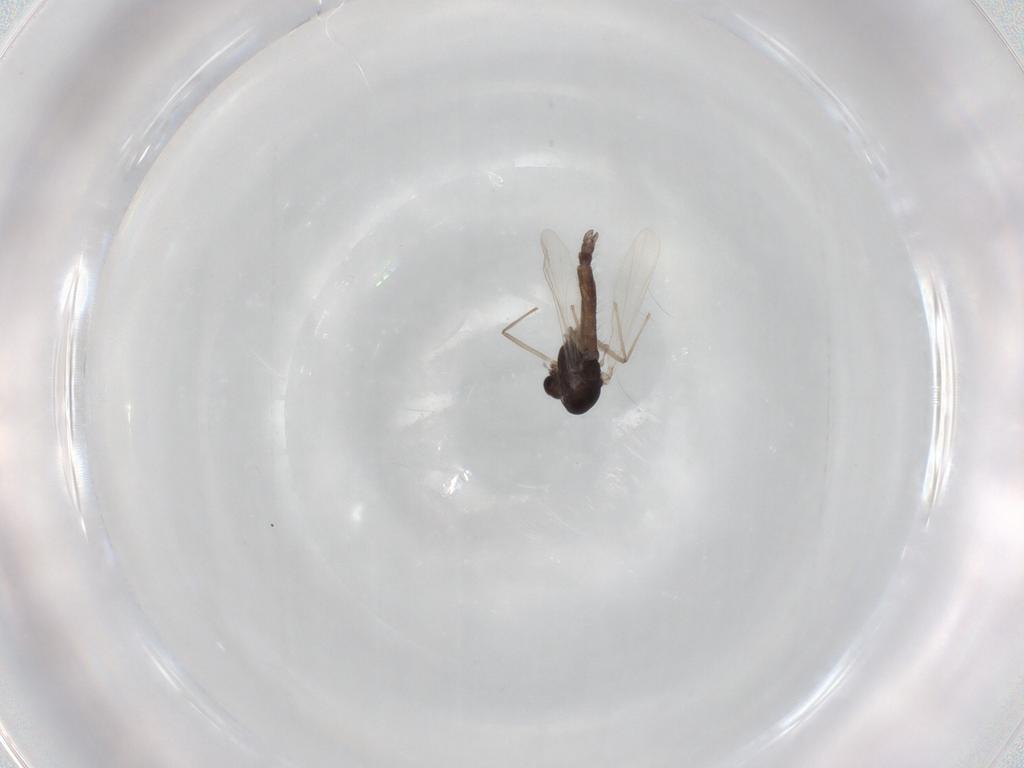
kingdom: Animalia
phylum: Arthropoda
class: Insecta
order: Diptera
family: Chironomidae
